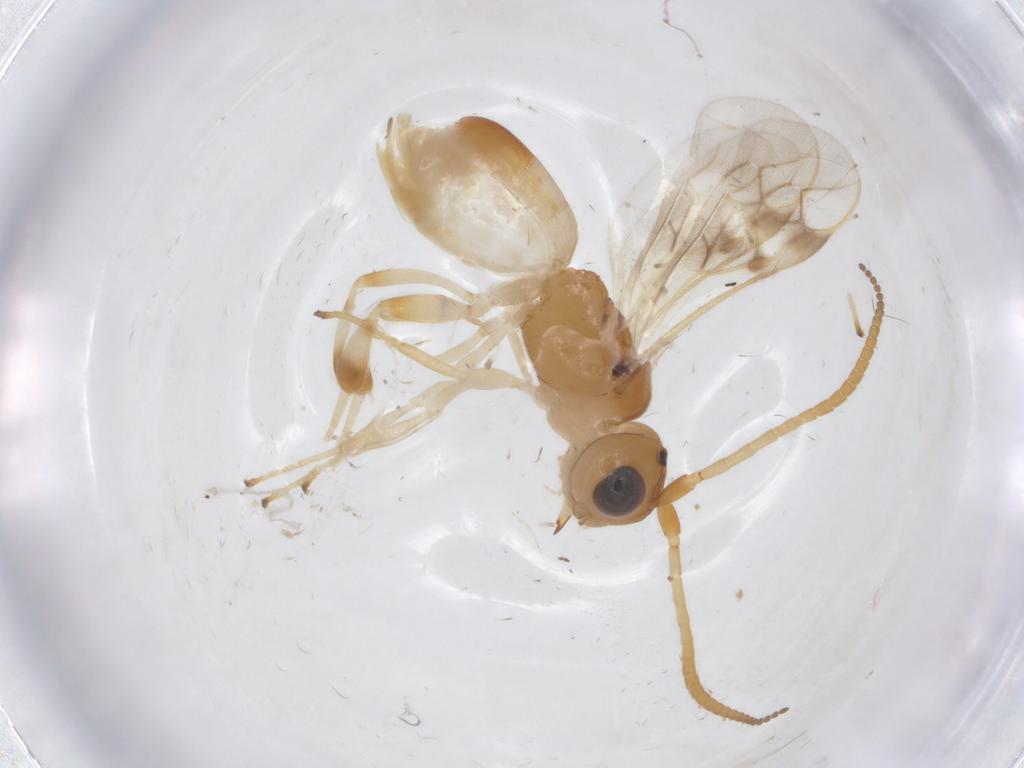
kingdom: Animalia
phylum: Arthropoda
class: Insecta
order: Hymenoptera
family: Braconidae
